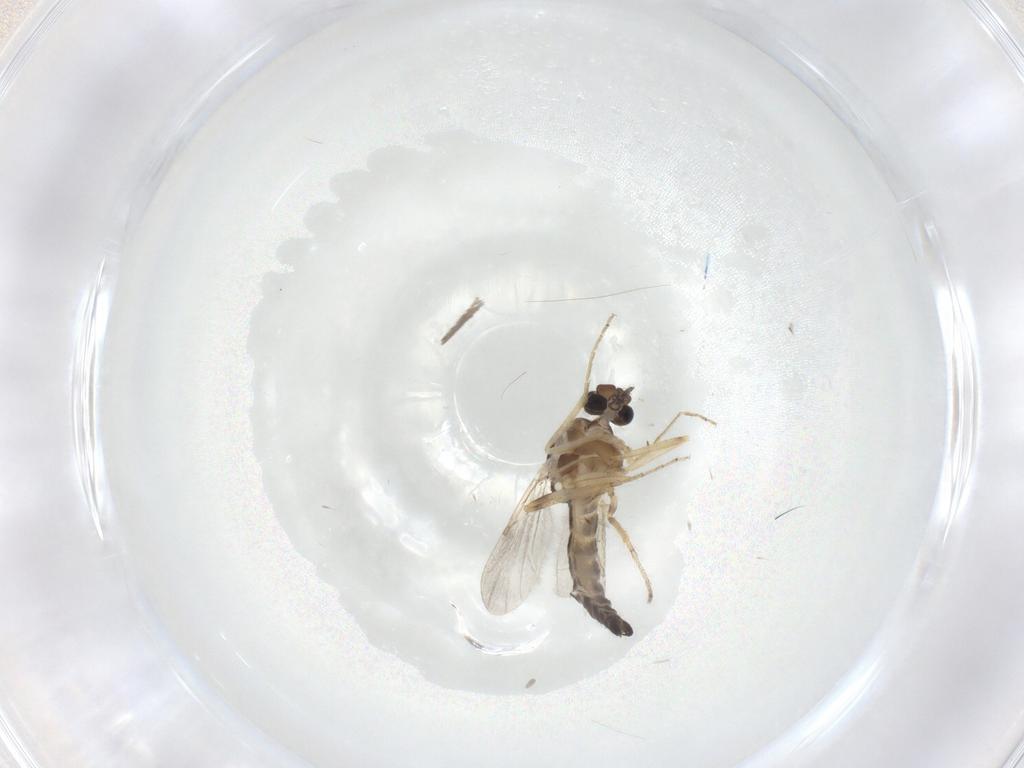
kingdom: Animalia
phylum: Arthropoda
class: Insecta
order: Diptera
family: Ceratopogonidae
